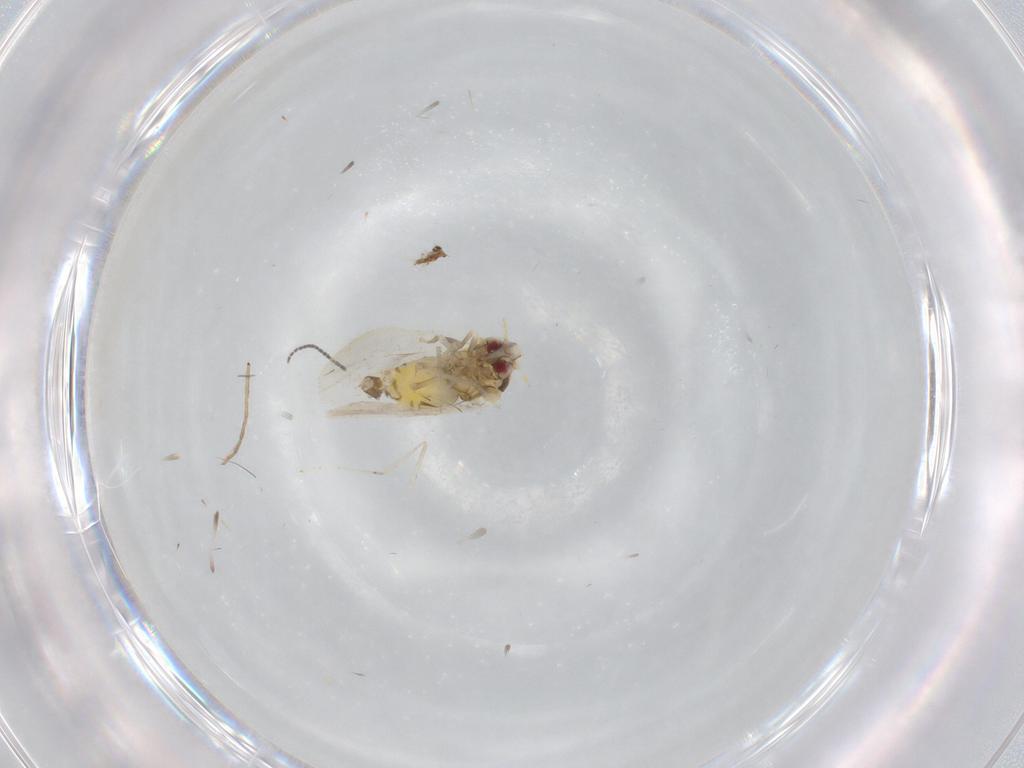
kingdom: Animalia
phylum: Arthropoda
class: Insecta
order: Hemiptera
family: Aleyrodidae
